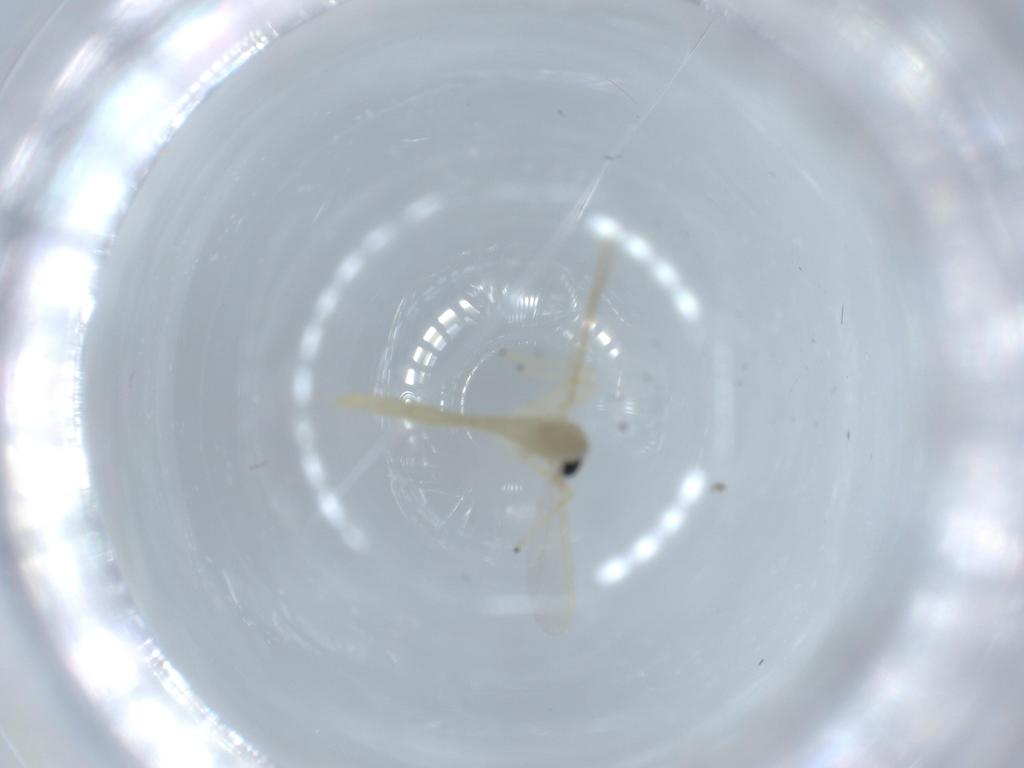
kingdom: Animalia
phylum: Arthropoda
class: Insecta
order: Diptera
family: Chironomidae
